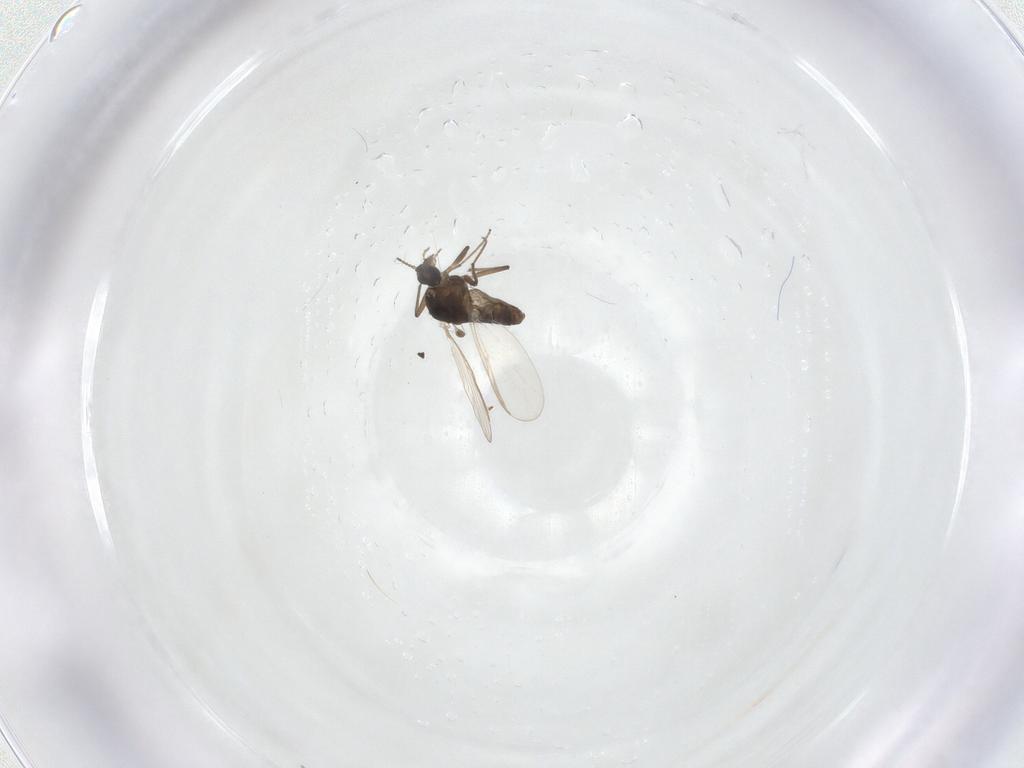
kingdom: Animalia
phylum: Arthropoda
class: Insecta
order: Diptera
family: Chironomidae
